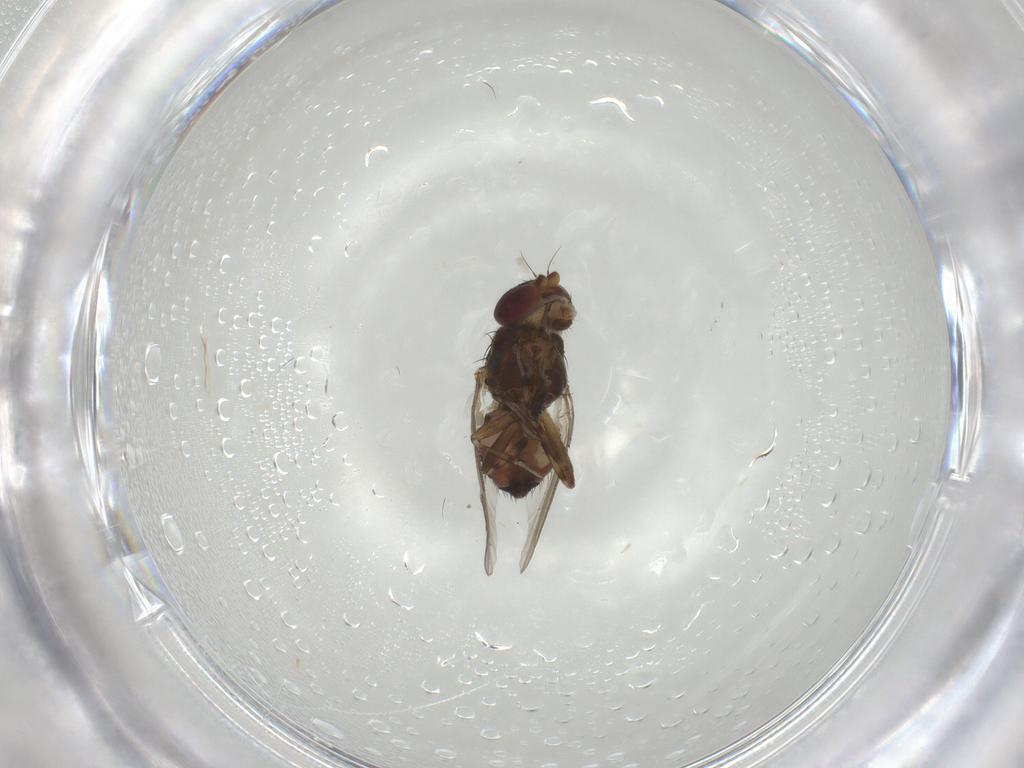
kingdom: Animalia
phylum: Arthropoda
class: Insecta
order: Diptera
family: Heleomyzidae
